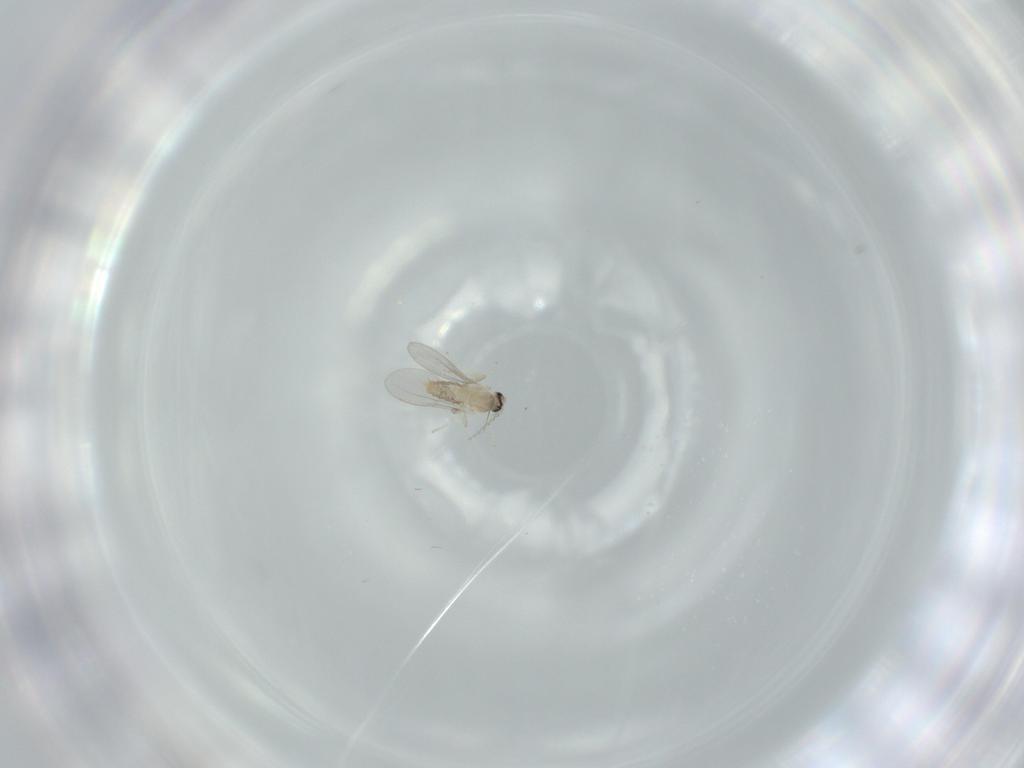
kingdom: Animalia
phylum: Arthropoda
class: Insecta
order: Diptera
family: Cecidomyiidae
